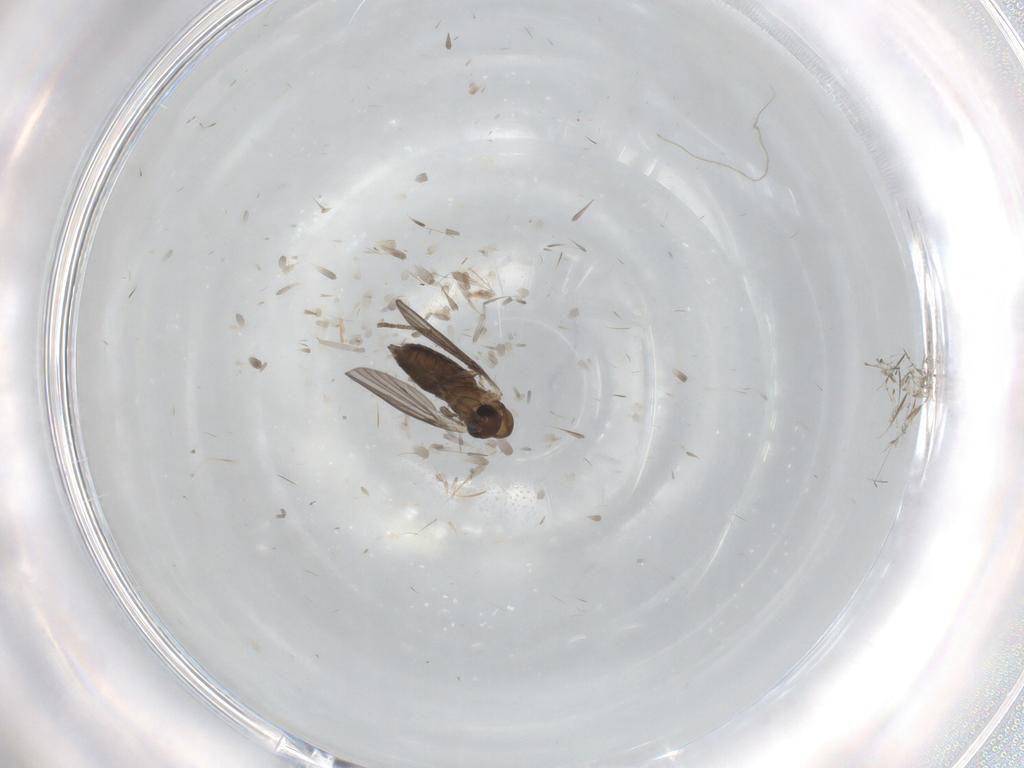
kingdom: Animalia
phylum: Arthropoda
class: Insecta
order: Diptera
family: Cecidomyiidae
